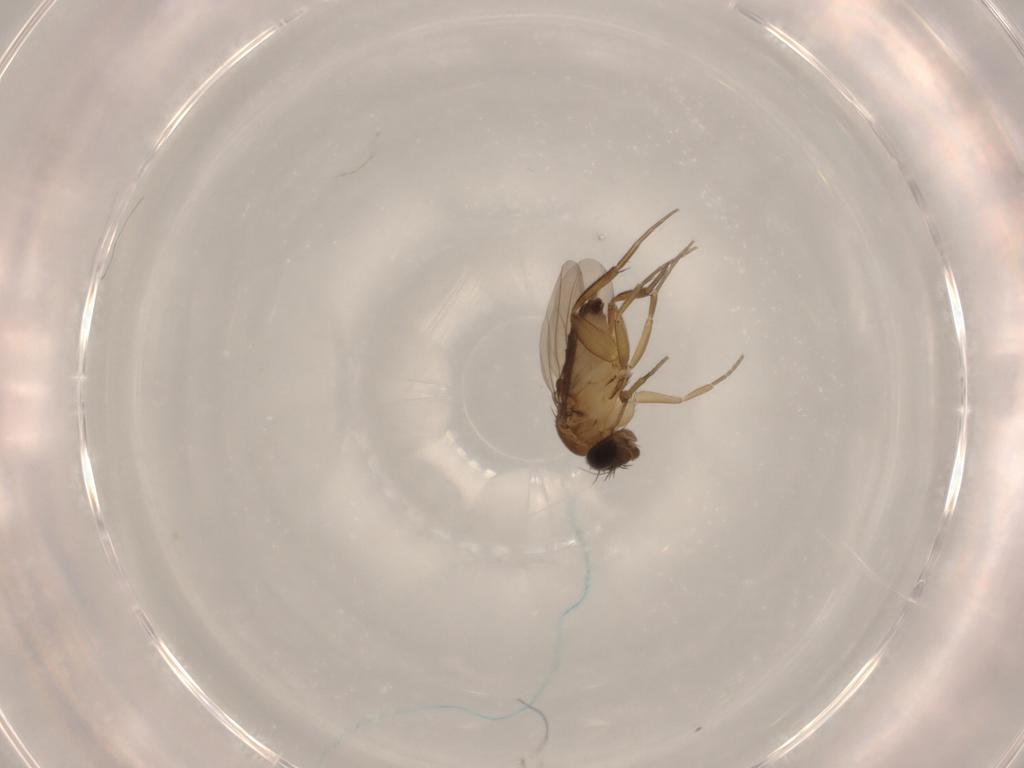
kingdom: Animalia
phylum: Arthropoda
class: Insecta
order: Diptera
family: Phoridae
